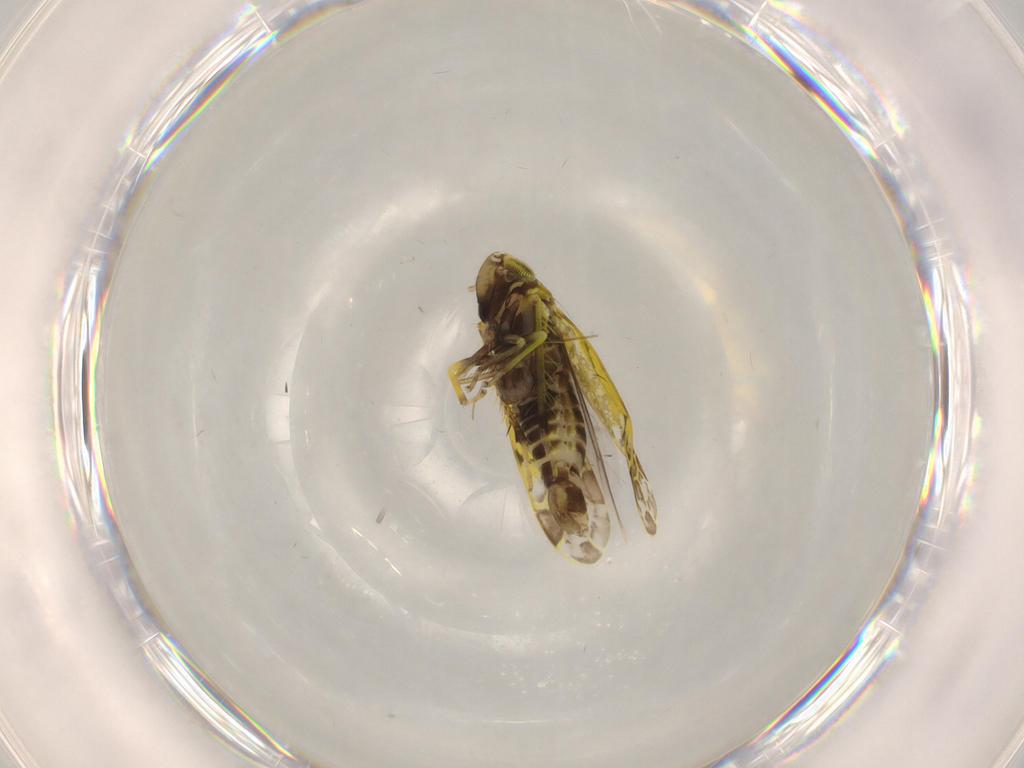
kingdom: Animalia
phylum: Arthropoda
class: Insecta
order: Hemiptera
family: Cicadellidae
